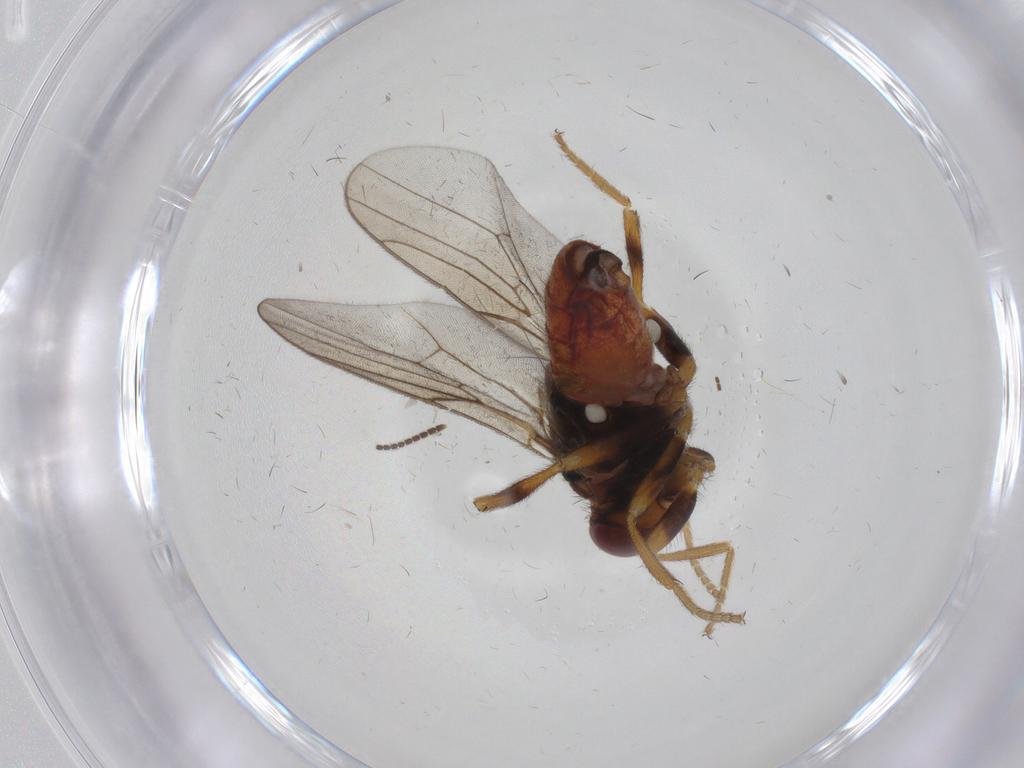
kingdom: Animalia
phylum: Arthropoda
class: Insecta
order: Diptera
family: Chloropidae
